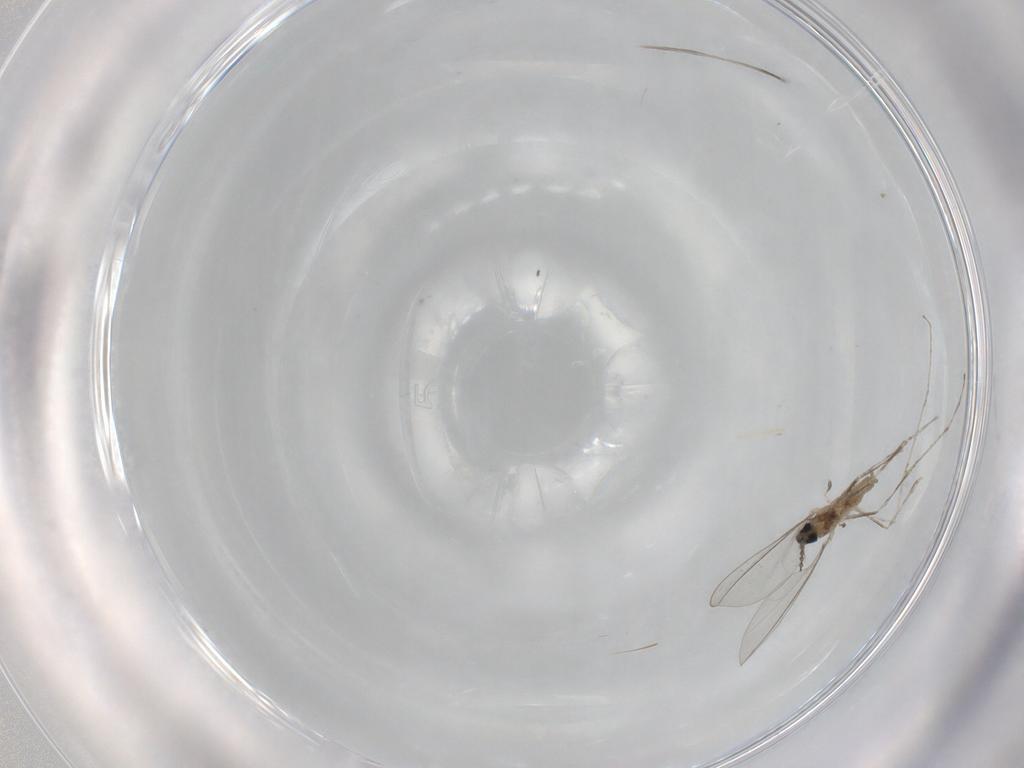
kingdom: Animalia
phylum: Arthropoda
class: Insecta
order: Diptera
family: Cecidomyiidae
